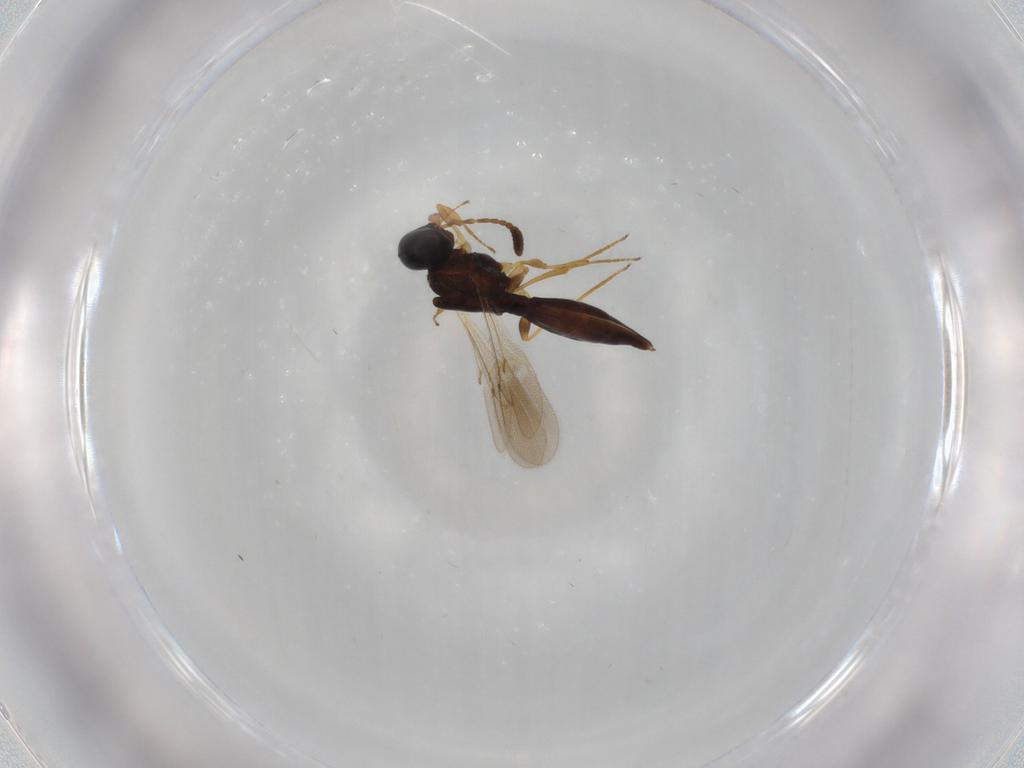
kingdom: Animalia
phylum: Arthropoda
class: Insecta
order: Hymenoptera
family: Scelionidae
